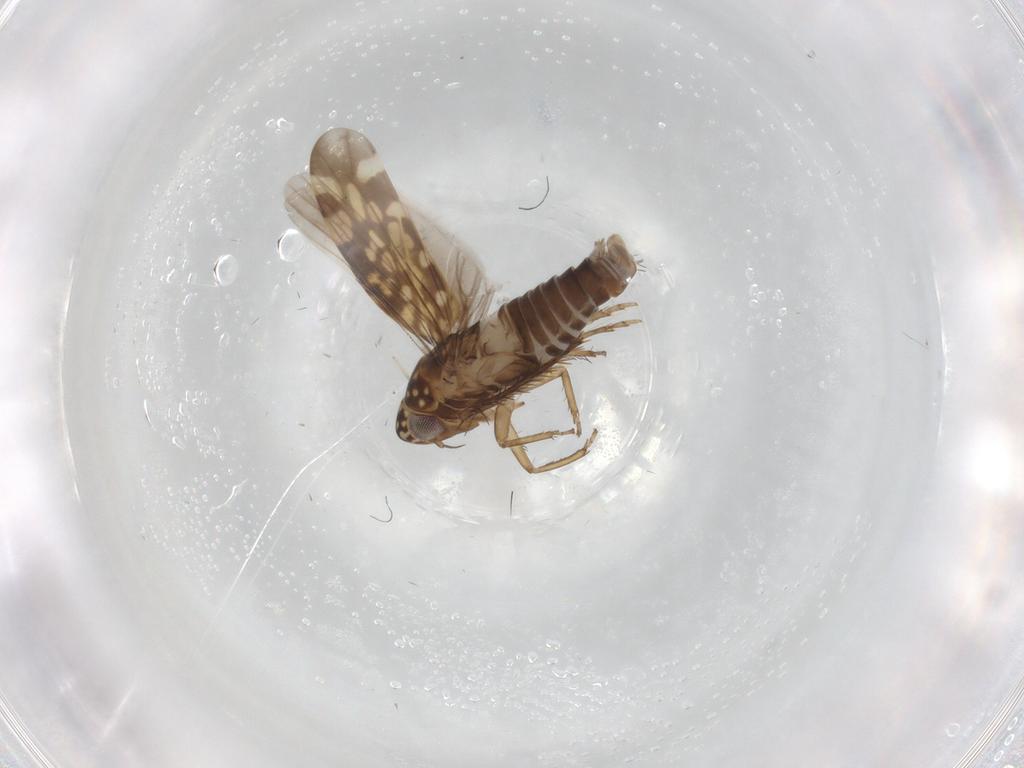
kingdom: Animalia
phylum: Arthropoda
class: Insecta
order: Hemiptera
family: Cicadellidae
